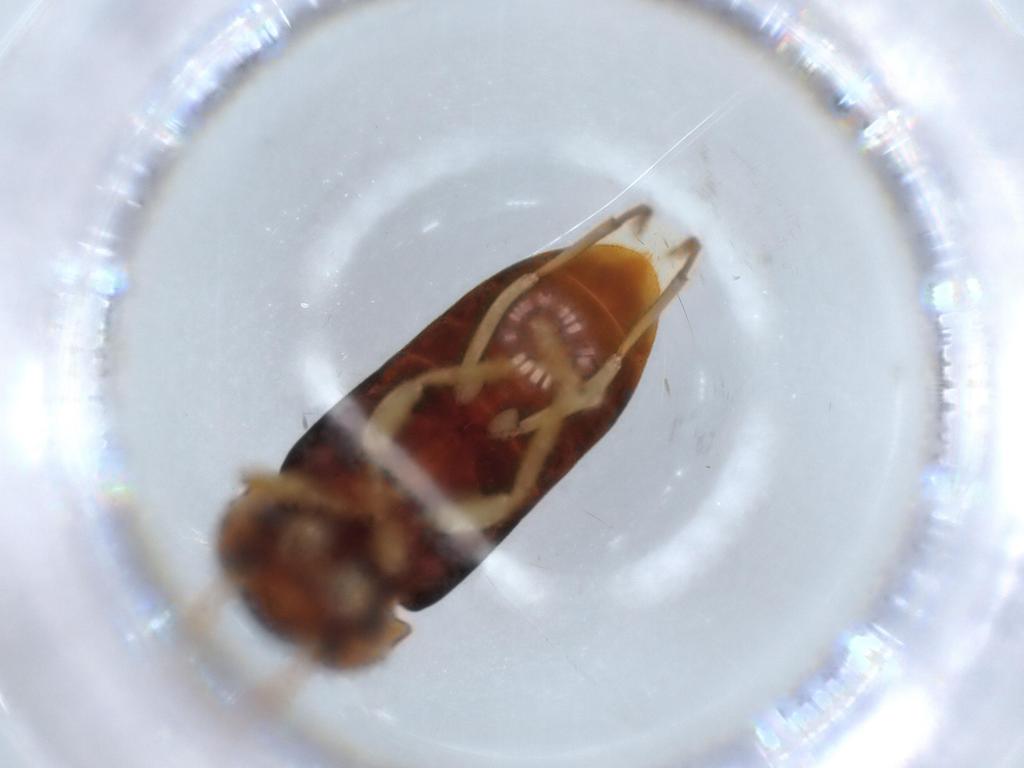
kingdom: Animalia
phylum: Arthropoda
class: Insecta
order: Coleoptera
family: Elateridae
